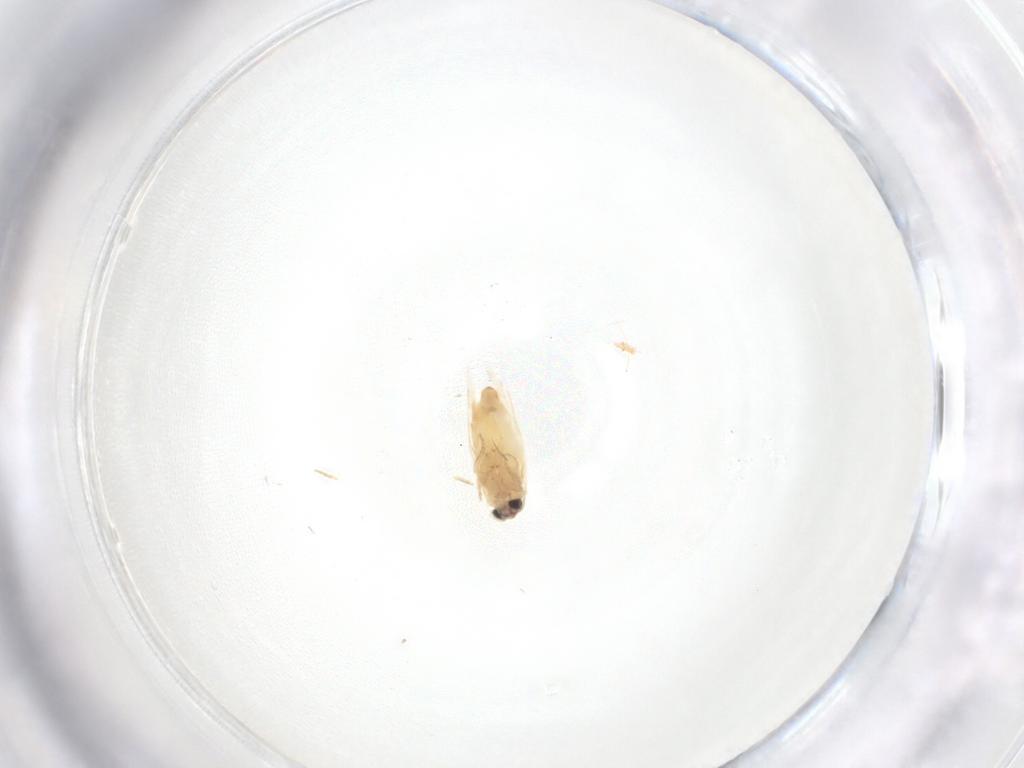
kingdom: Animalia
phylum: Arthropoda
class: Insecta
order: Lepidoptera
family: Crambidae
